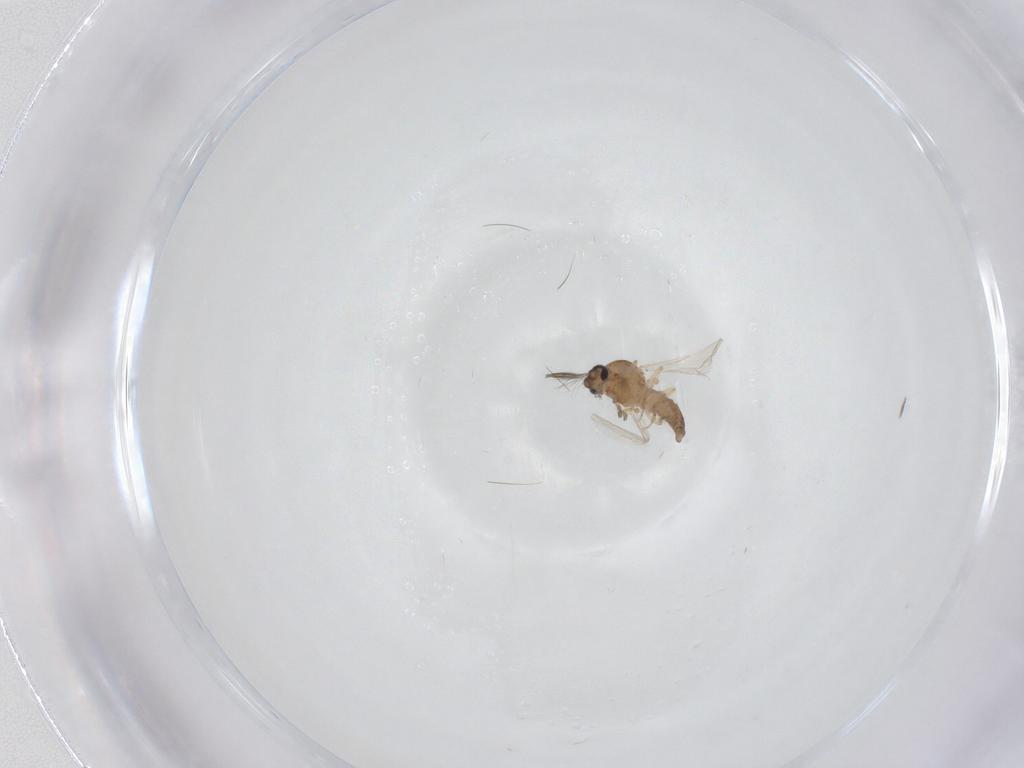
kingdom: Animalia
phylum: Arthropoda
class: Insecta
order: Diptera
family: Ceratopogonidae
